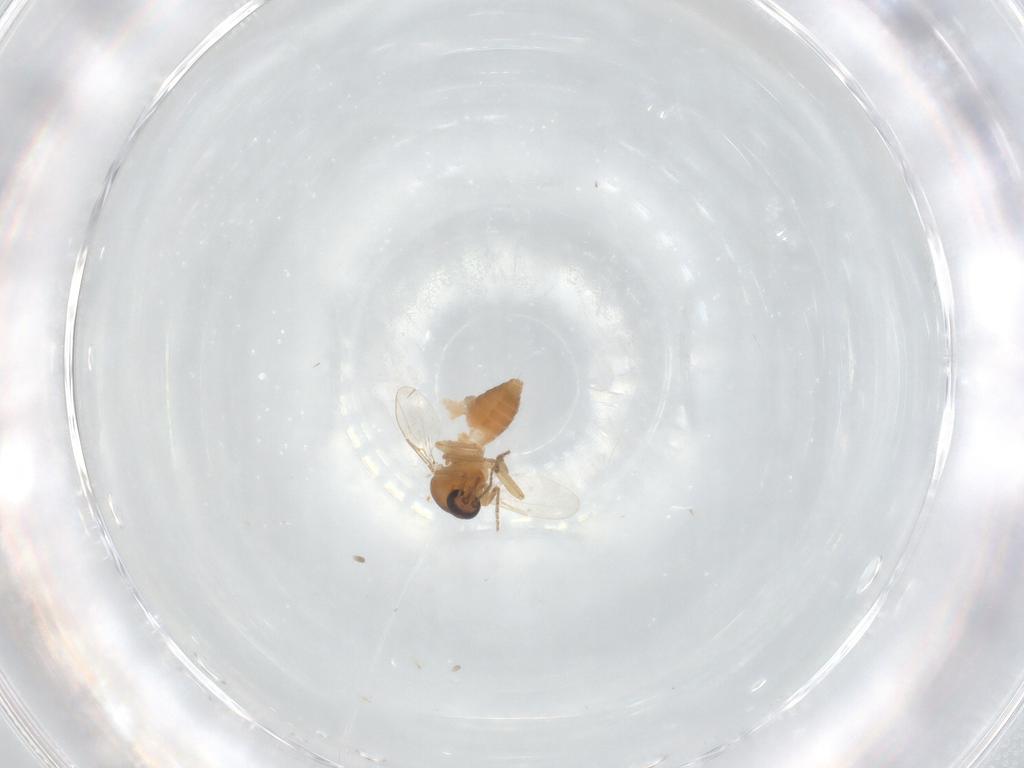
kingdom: Animalia
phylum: Arthropoda
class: Insecta
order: Diptera
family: Ceratopogonidae
